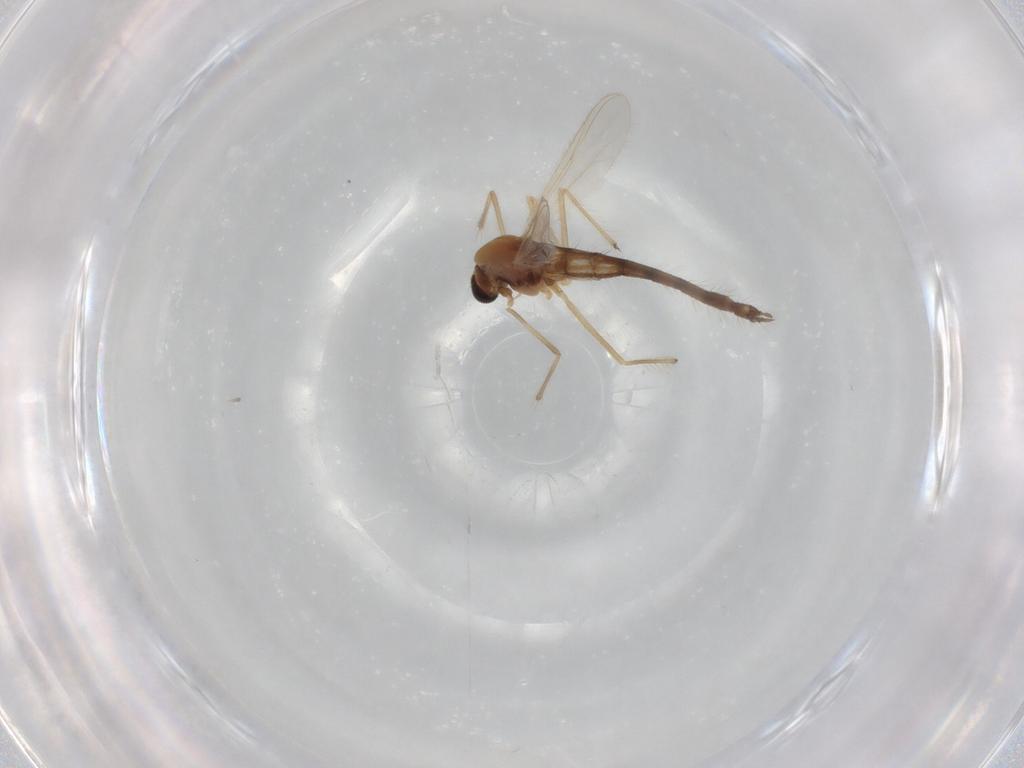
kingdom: Animalia
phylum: Arthropoda
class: Insecta
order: Diptera
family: Chironomidae
